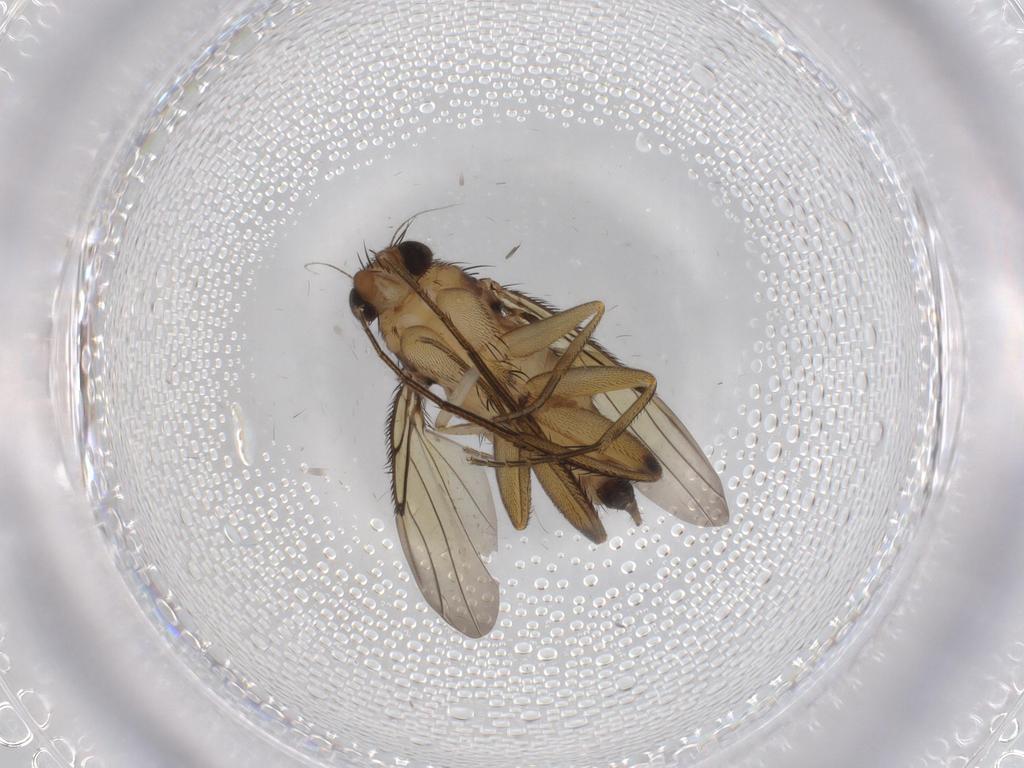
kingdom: Animalia
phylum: Arthropoda
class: Insecta
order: Diptera
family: Phoridae
